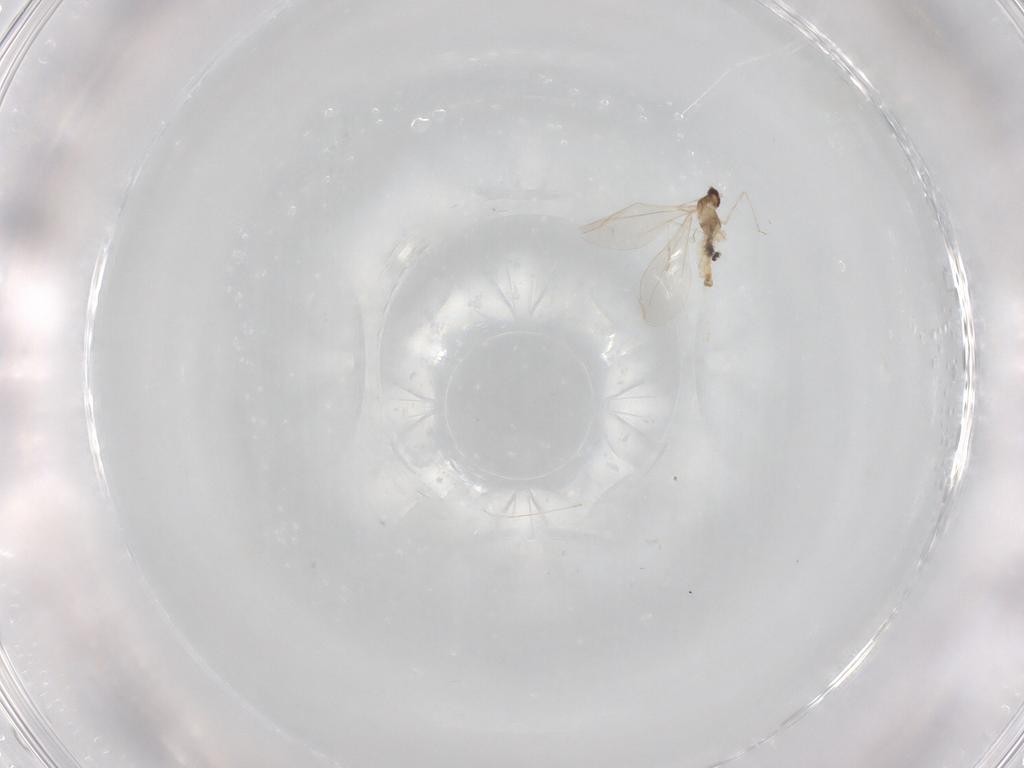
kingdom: Animalia
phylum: Arthropoda
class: Insecta
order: Diptera
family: Cecidomyiidae
